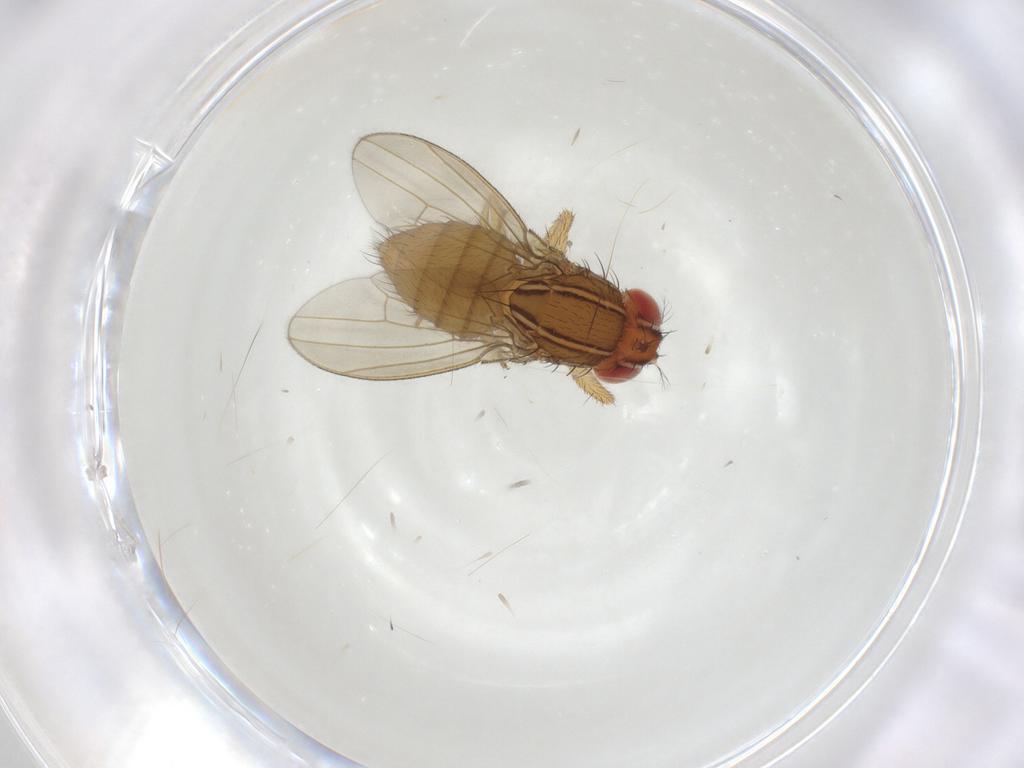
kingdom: Animalia
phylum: Arthropoda
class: Insecta
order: Diptera
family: Drosophilidae
